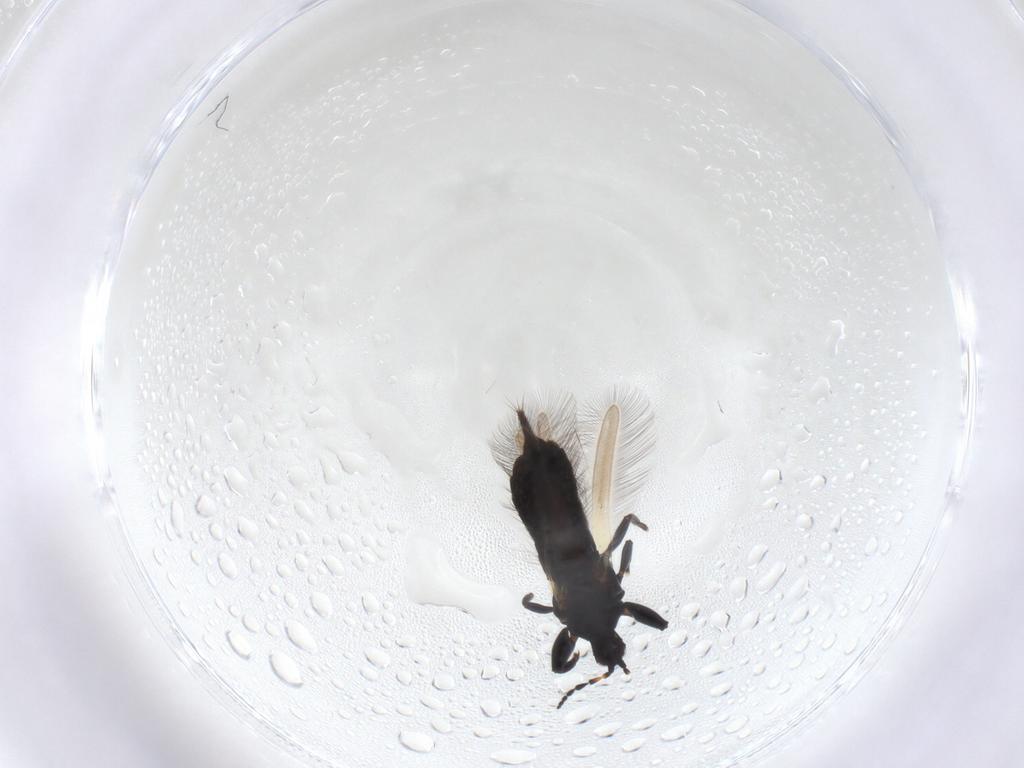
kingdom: Animalia
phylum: Arthropoda
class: Insecta
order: Thysanoptera
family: Phlaeothripidae
